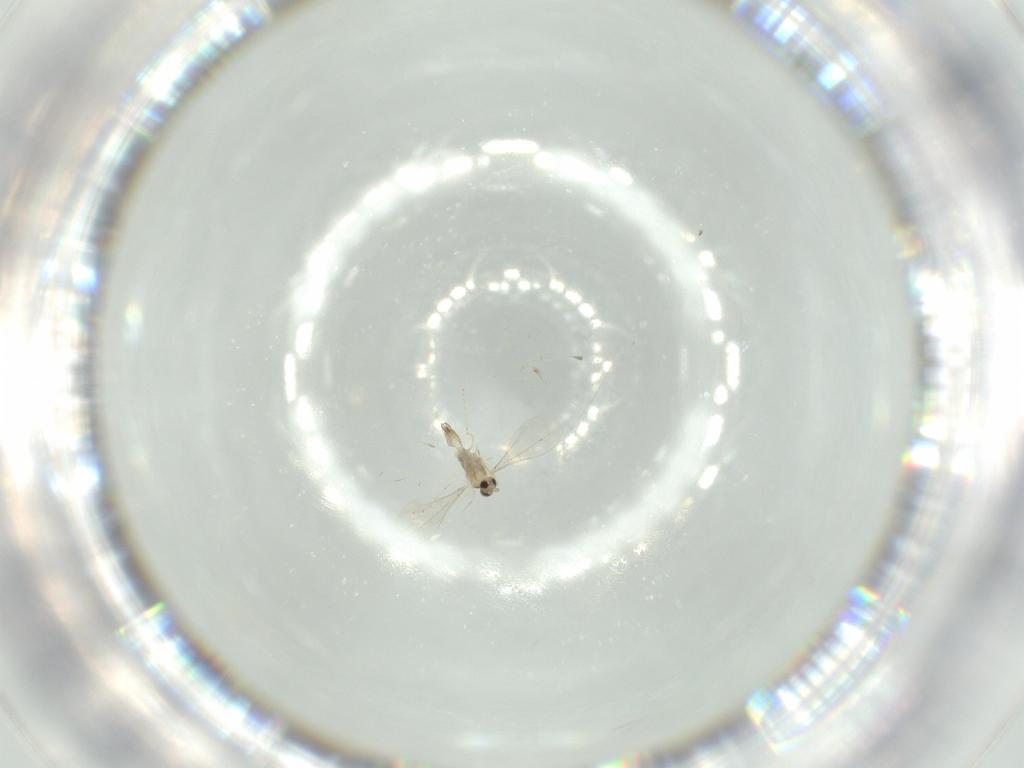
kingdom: Animalia
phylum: Arthropoda
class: Insecta
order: Diptera
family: Cecidomyiidae
